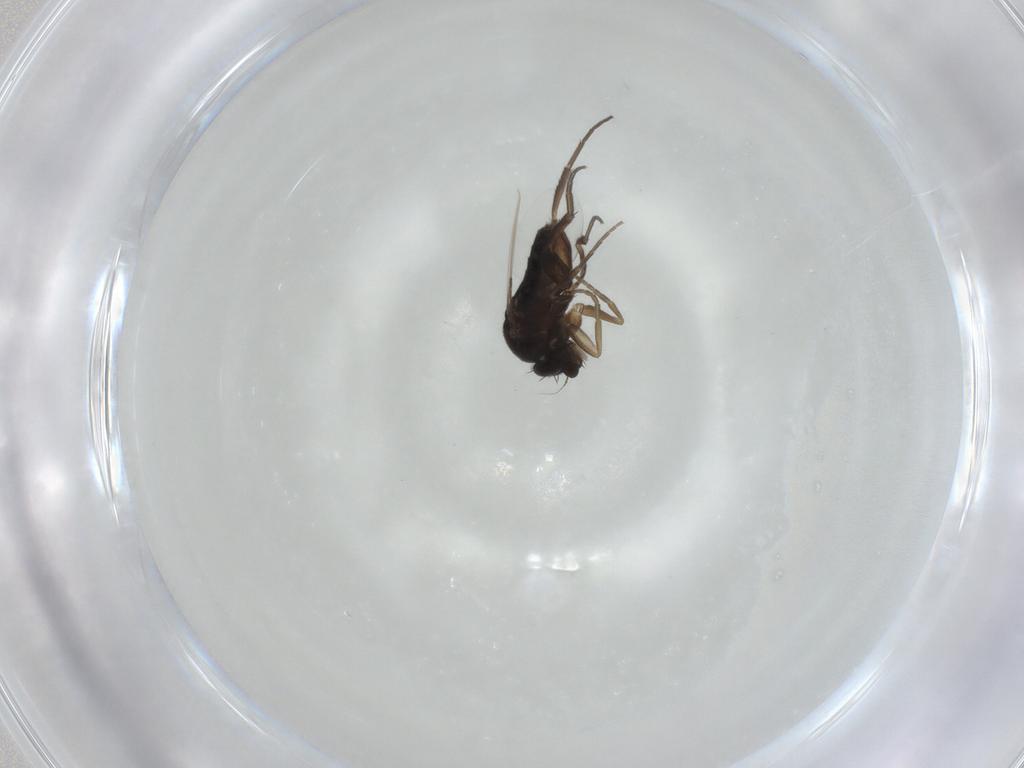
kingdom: Animalia
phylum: Arthropoda
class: Insecta
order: Diptera
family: Phoridae
